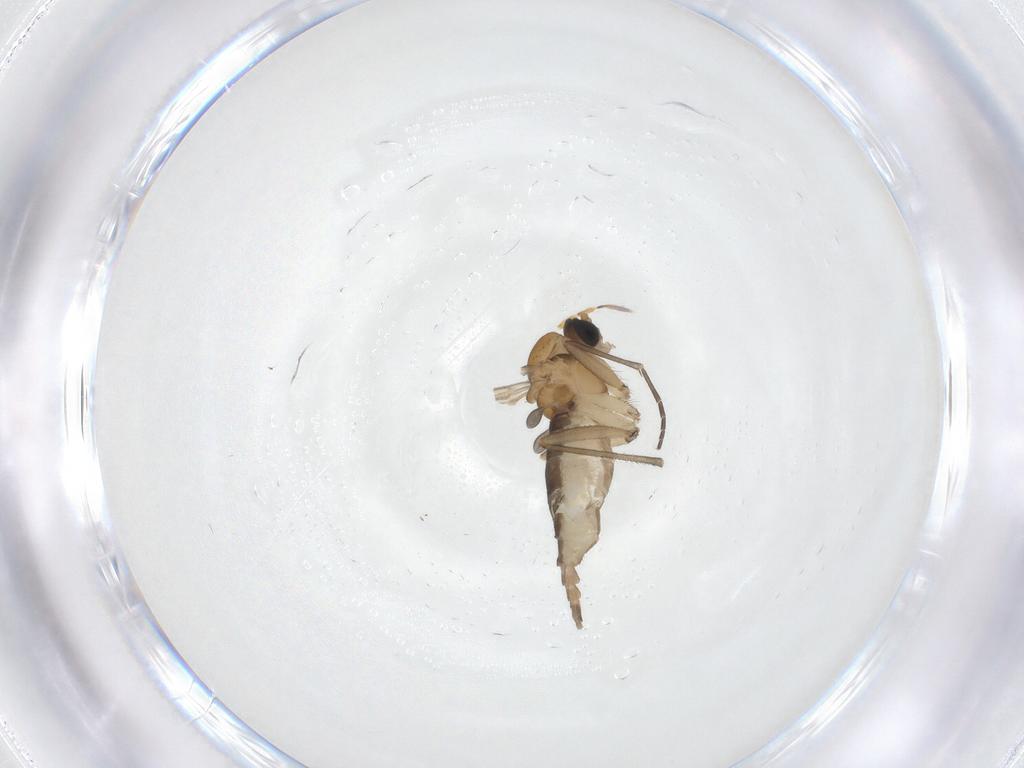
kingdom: Animalia
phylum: Arthropoda
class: Insecta
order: Diptera
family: Sciaridae
